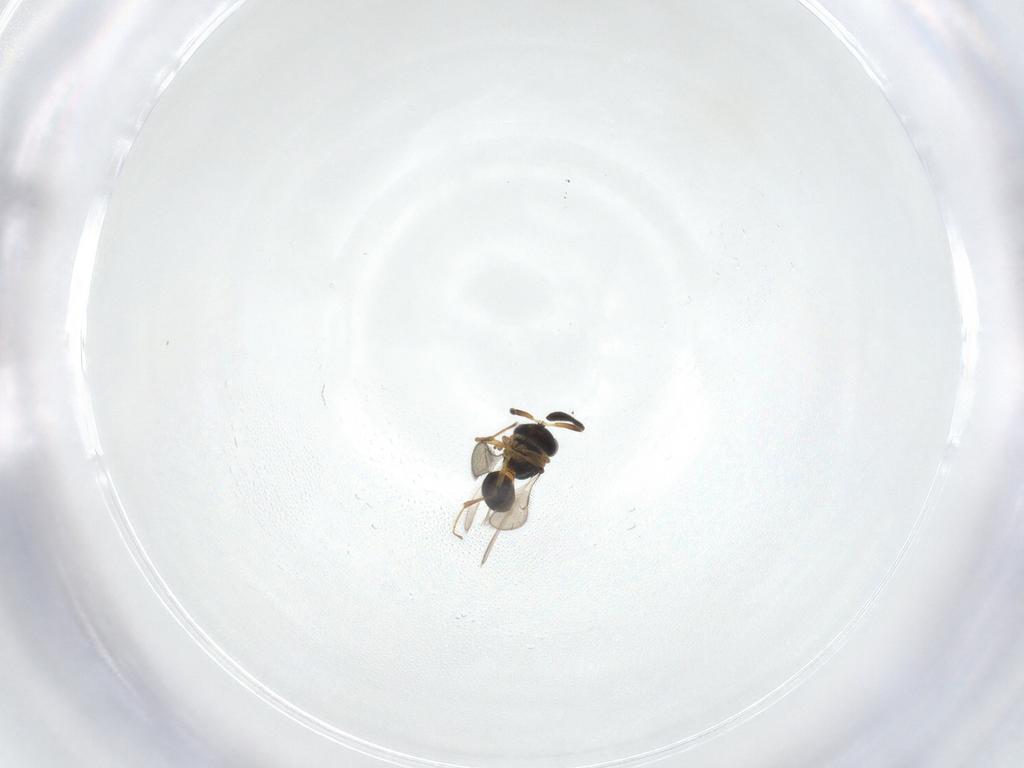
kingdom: Animalia
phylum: Arthropoda
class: Insecta
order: Hymenoptera
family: Scelionidae
